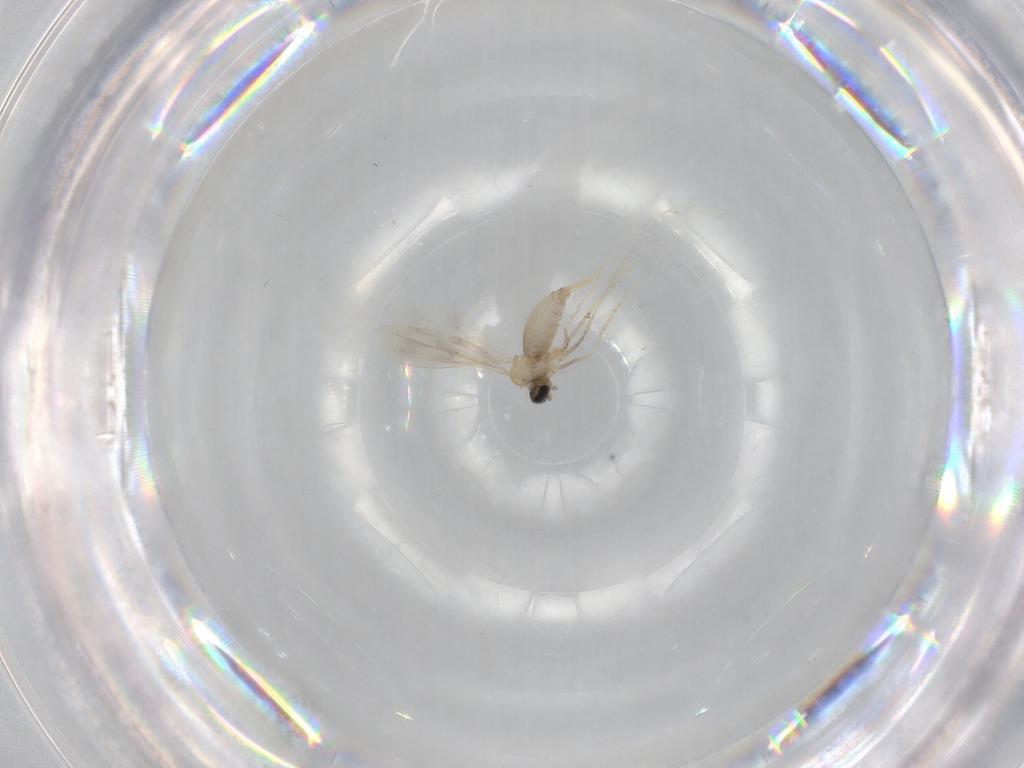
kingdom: Animalia
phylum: Arthropoda
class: Insecta
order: Diptera
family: Cecidomyiidae
